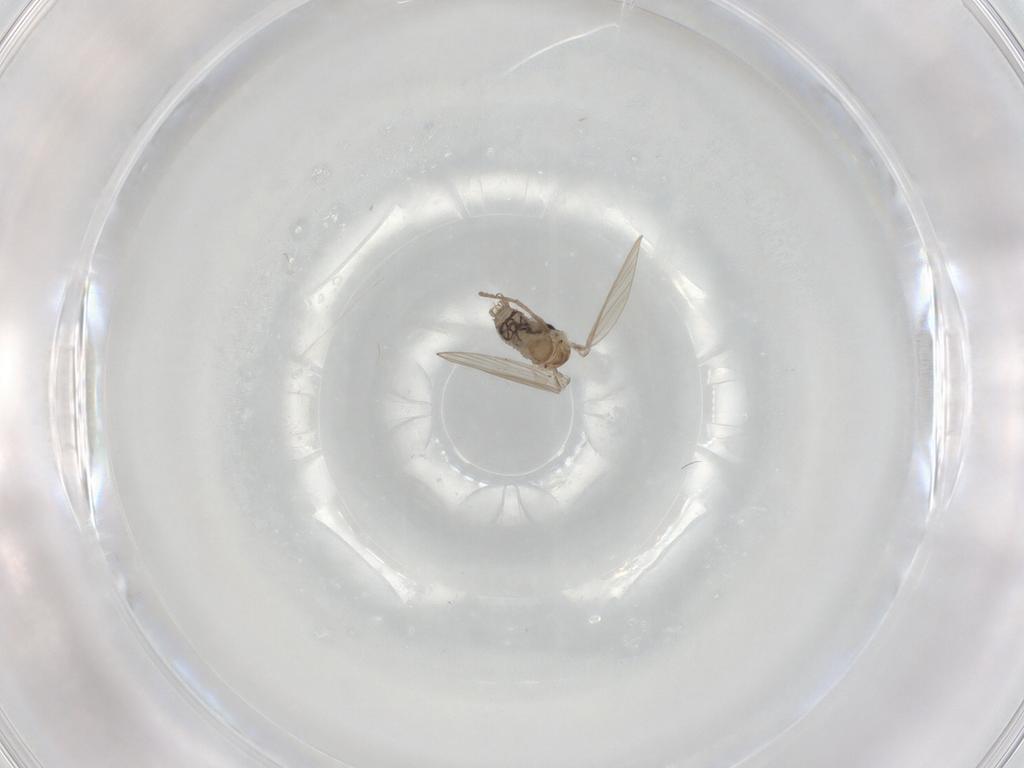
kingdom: Animalia
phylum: Arthropoda
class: Insecta
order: Diptera
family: Psychodidae
